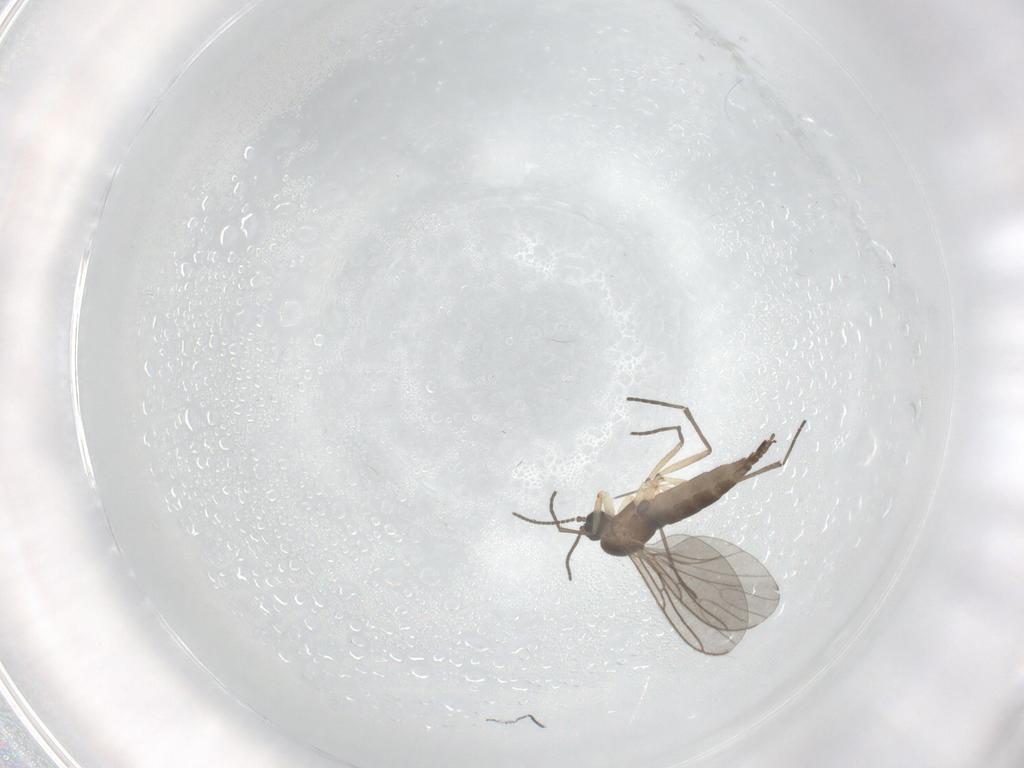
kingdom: Animalia
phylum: Arthropoda
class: Insecta
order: Diptera
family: Sciaridae
